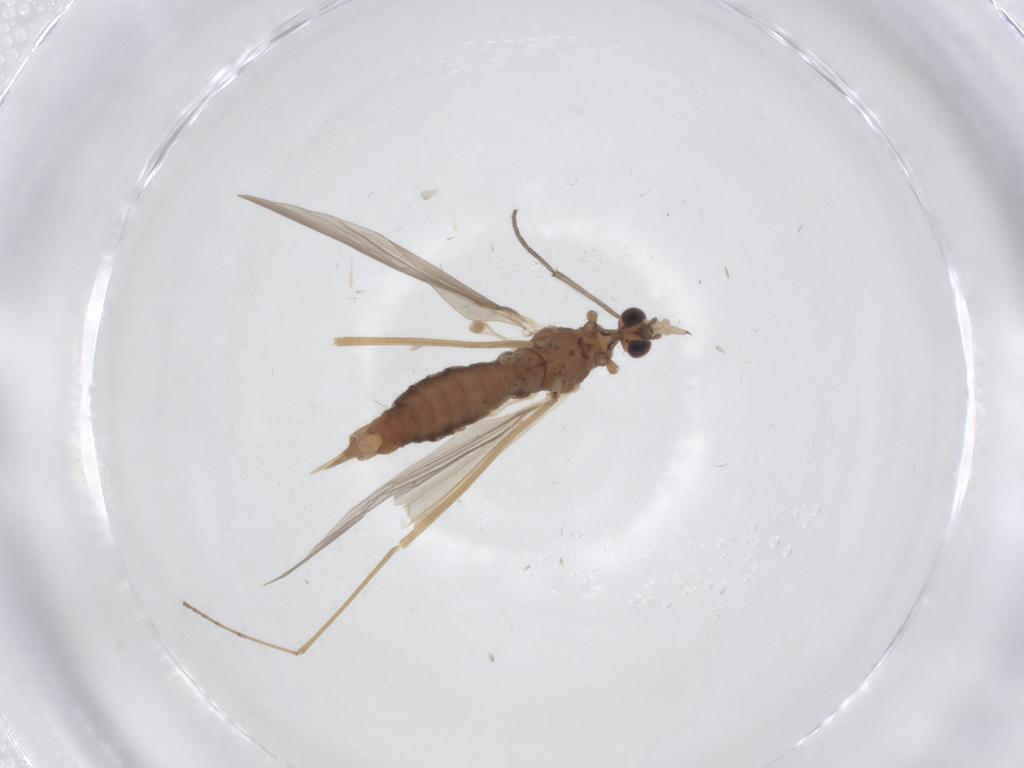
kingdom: Animalia
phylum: Arthropoda
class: Insecta
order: Diptera
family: Limoniidae
